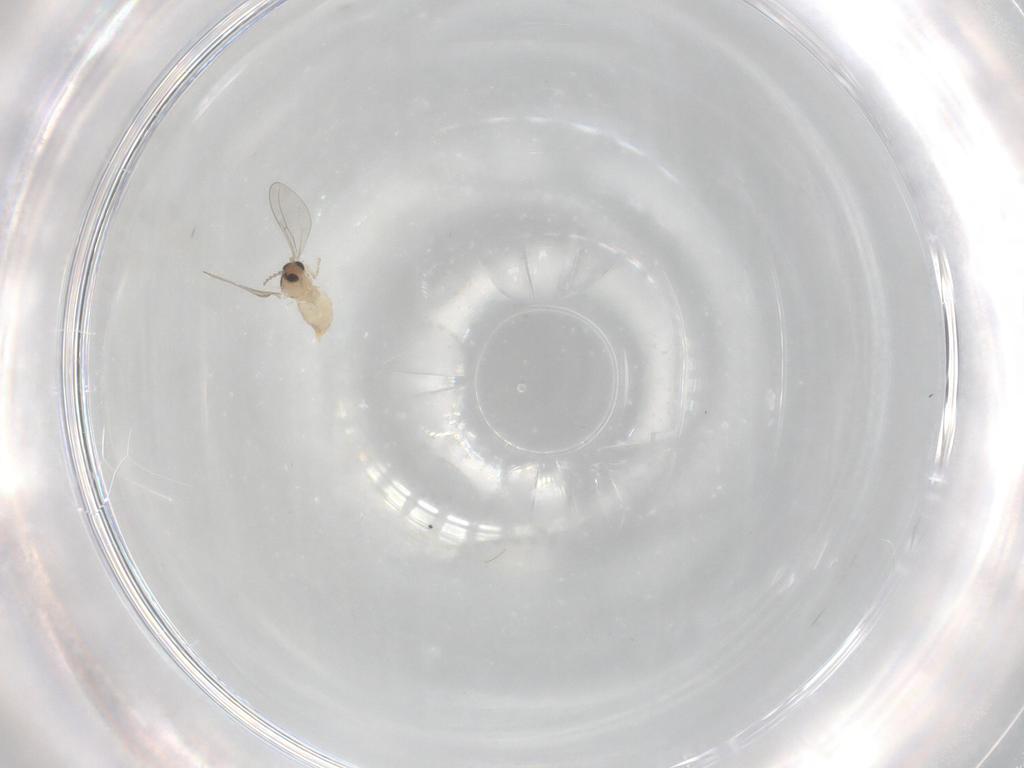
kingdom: Animalia
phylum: Arthropoda
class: Insecta
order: Diptera
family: Cecidomyiidae
